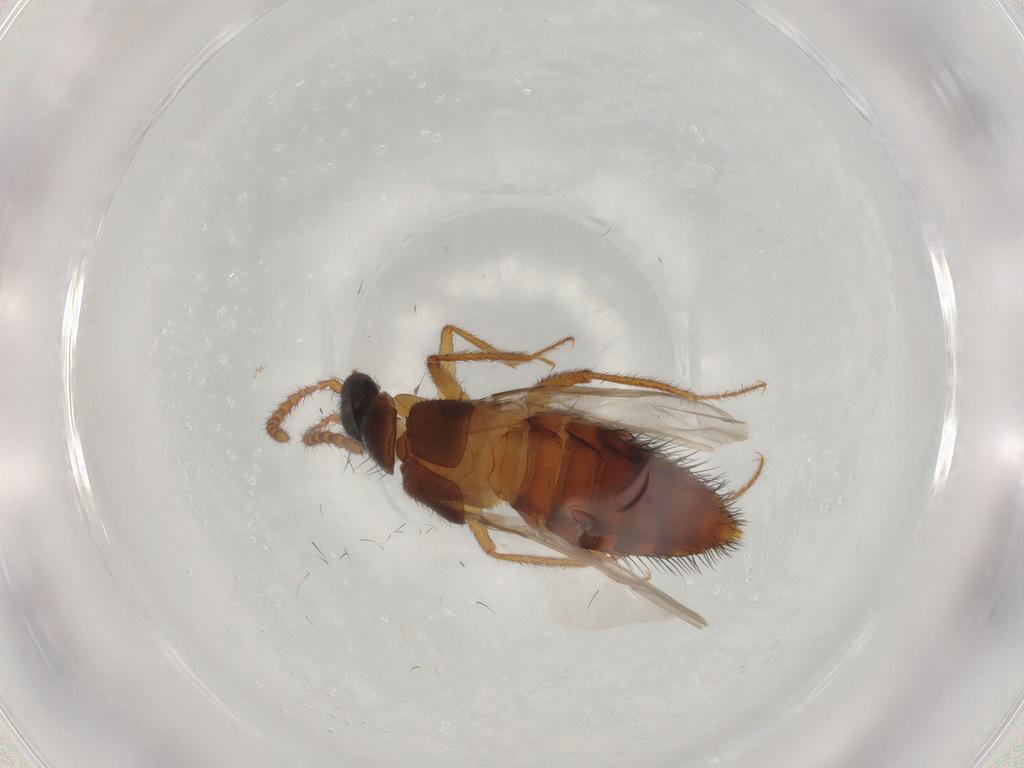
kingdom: Animalia
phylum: Arthropoda
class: Insecta
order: Coleoptera
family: Staphylinidae
